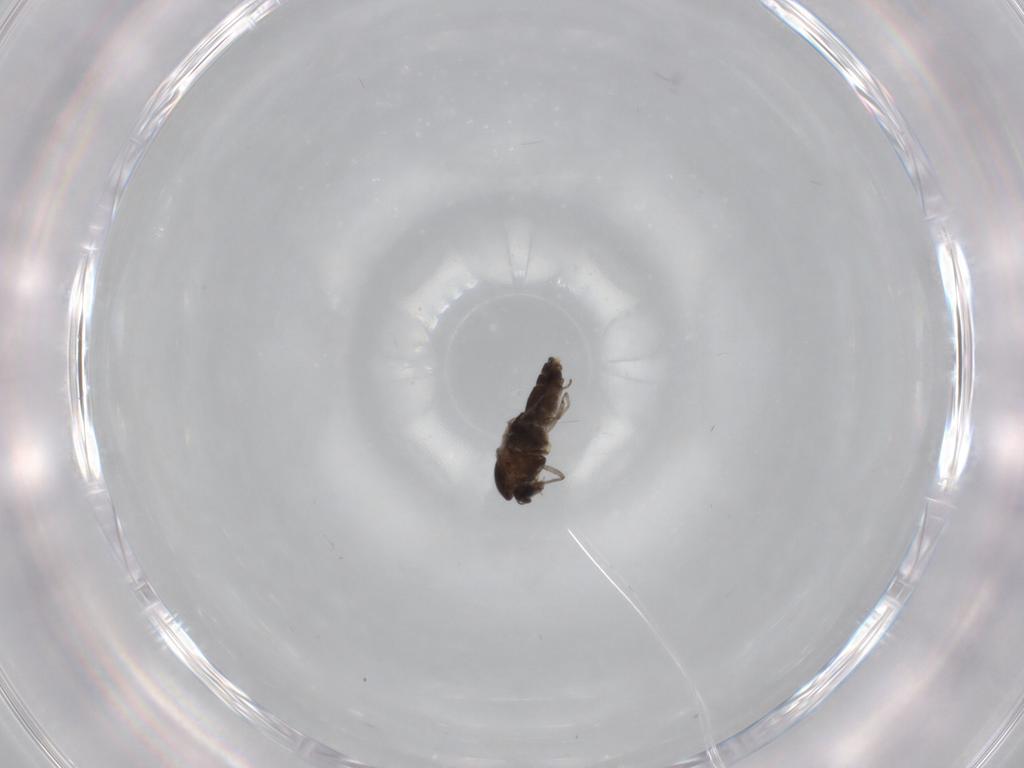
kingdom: Animalia
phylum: Arthropoda
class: Insecta
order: Diptera
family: Chironomidae
